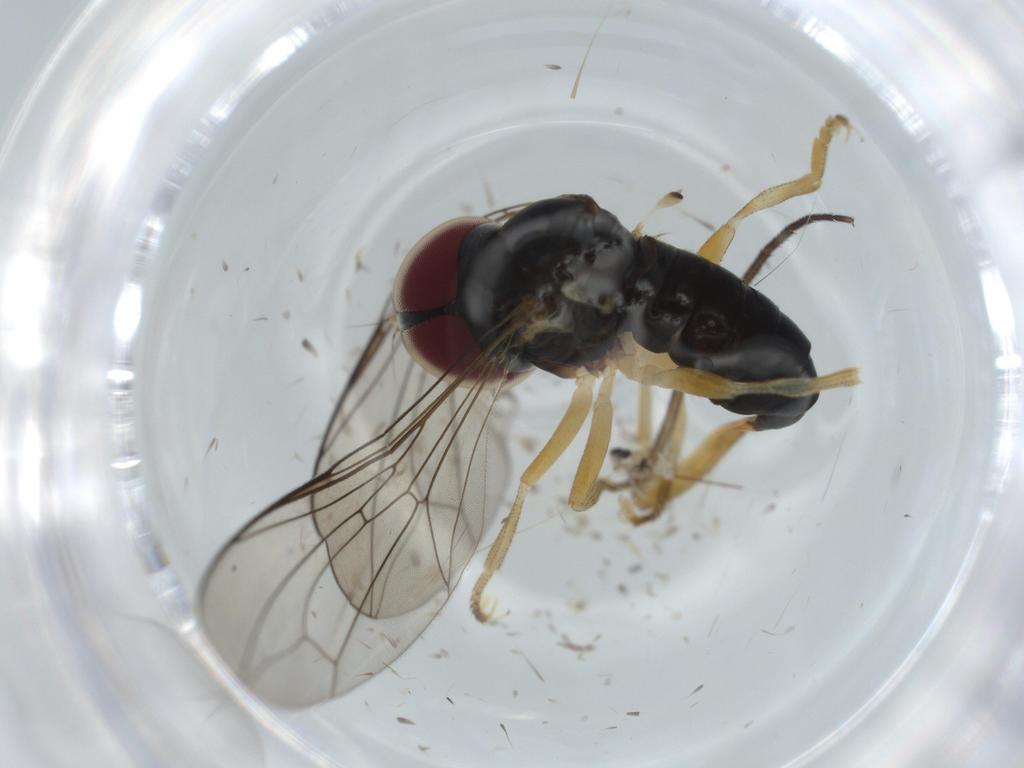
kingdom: Animalia
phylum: Arthropoda
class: Insecta
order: Diptera
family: Pipunculidae
